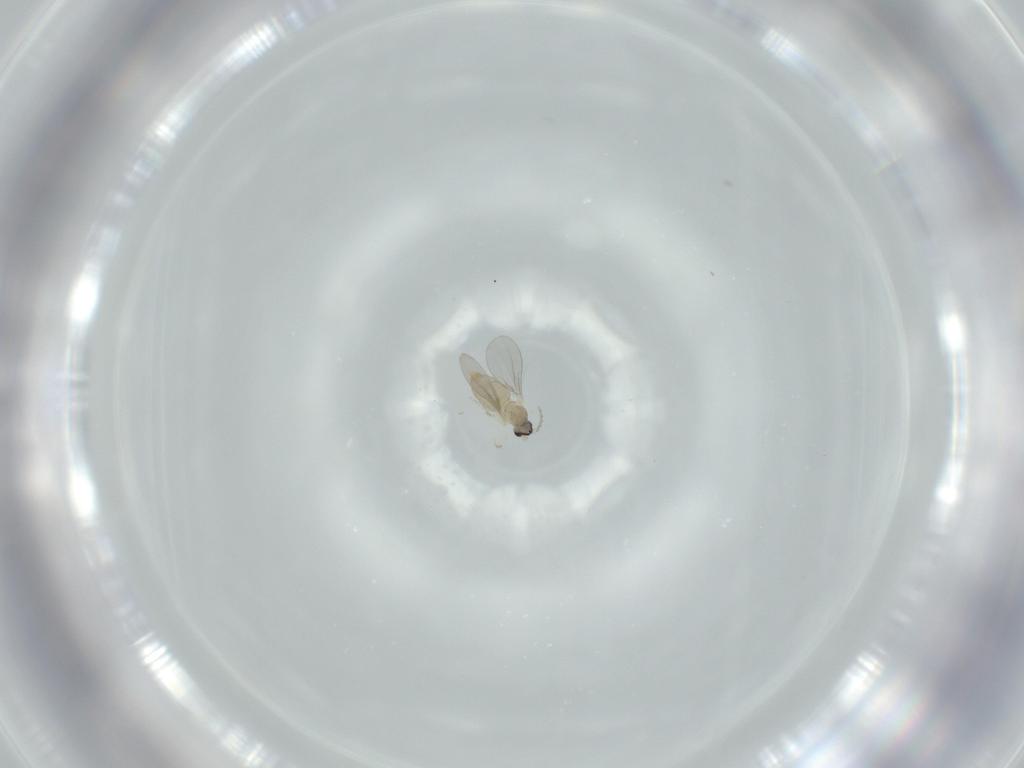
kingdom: Animalia
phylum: Arthropoda
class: Insecta
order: Diptera
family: Cecidomyiidae
